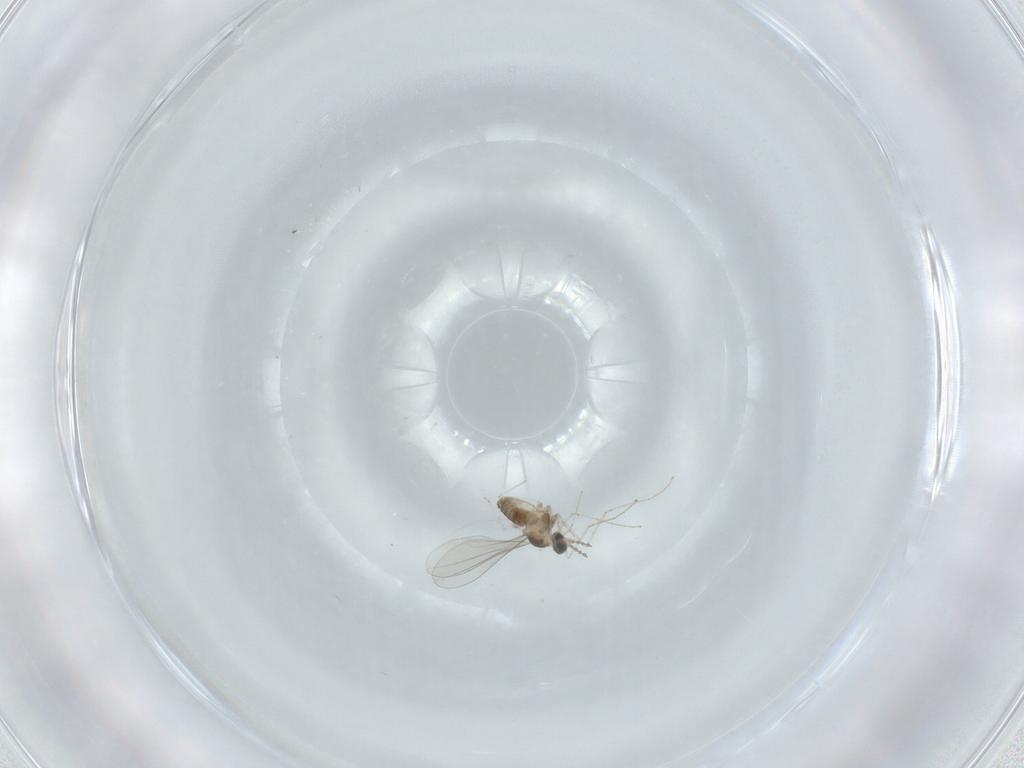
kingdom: Animalia
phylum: Arthropoda
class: Insecta
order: Diptera
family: Cecidomyiidae
